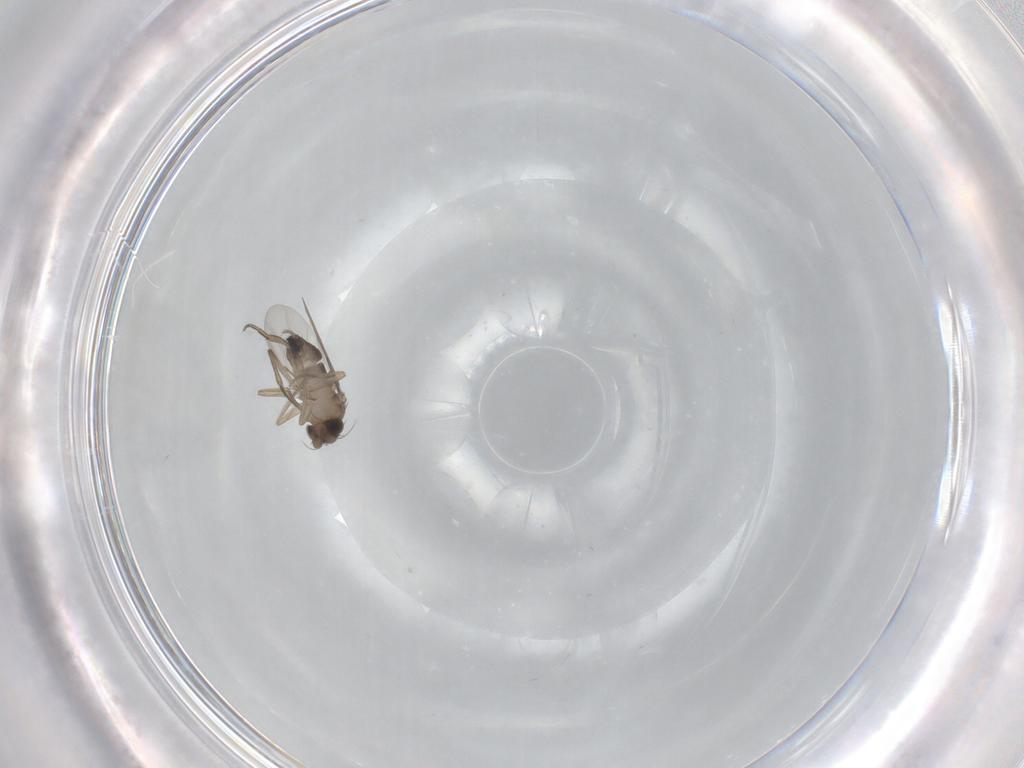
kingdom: Animalia
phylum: Arthropoda
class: Insecta
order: Diptera
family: Phoridae
